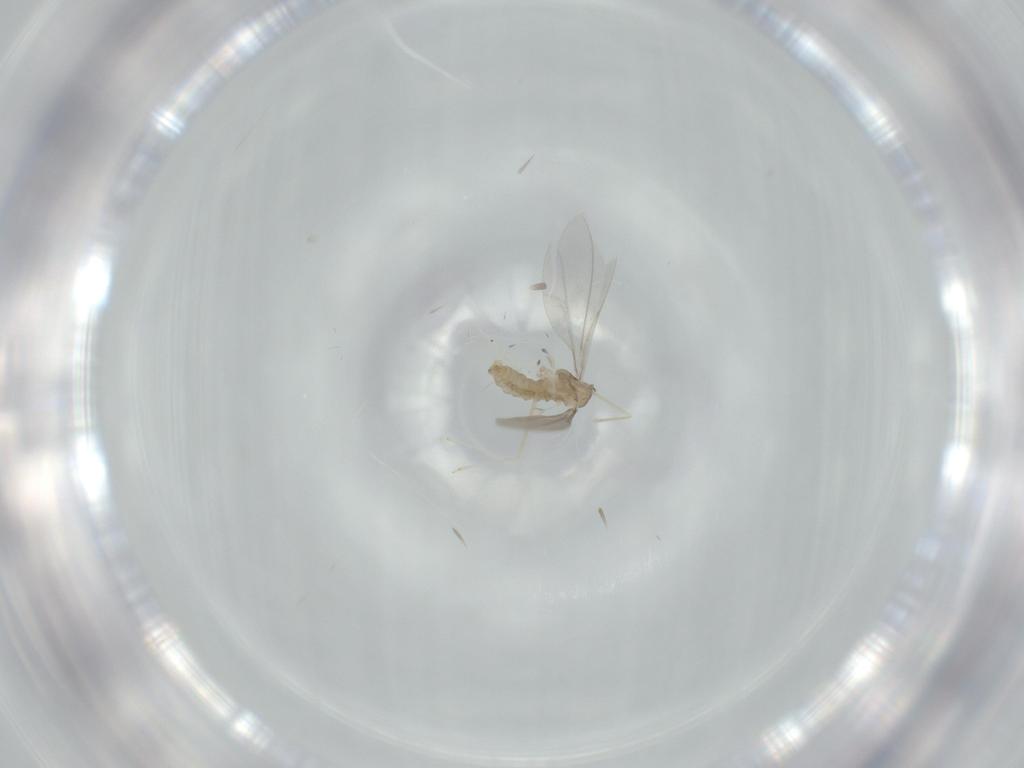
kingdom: Animalia
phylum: Arthropoda
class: Insecta
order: Diptera
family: Cecidomyiidae
